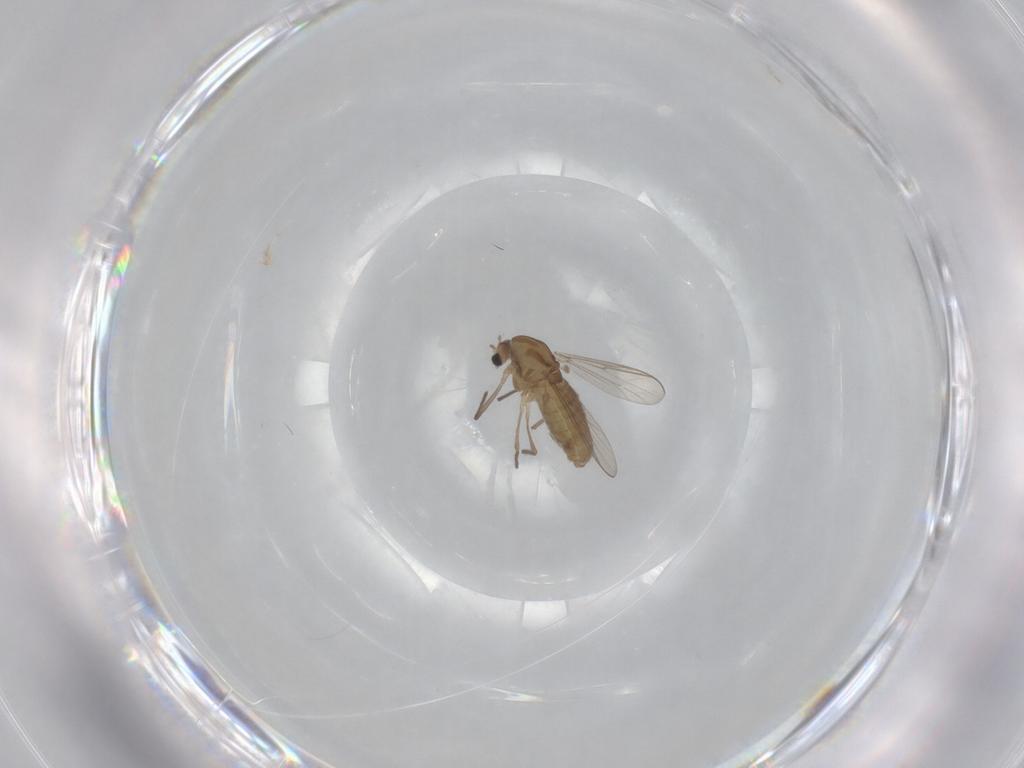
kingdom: Animalia
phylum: Arthropoda
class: Insecta
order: Diptera
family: Chironomidae
